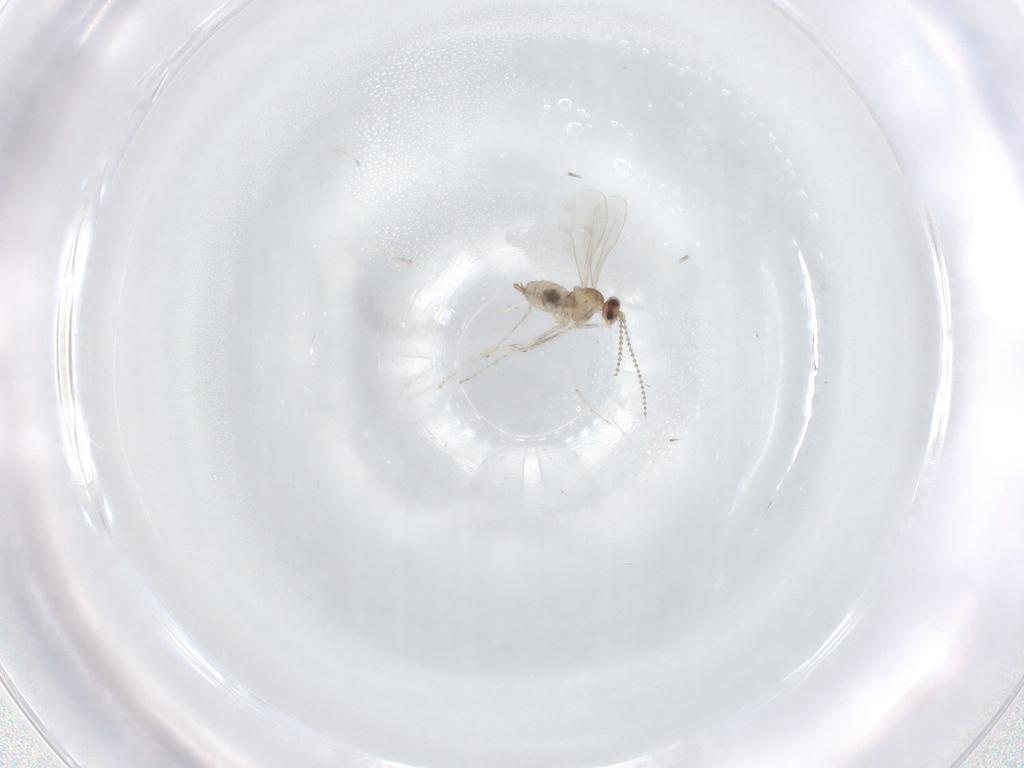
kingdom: Animalia
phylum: Arthropoda
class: Insecta
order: Diptera
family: Cecidomyiidae
